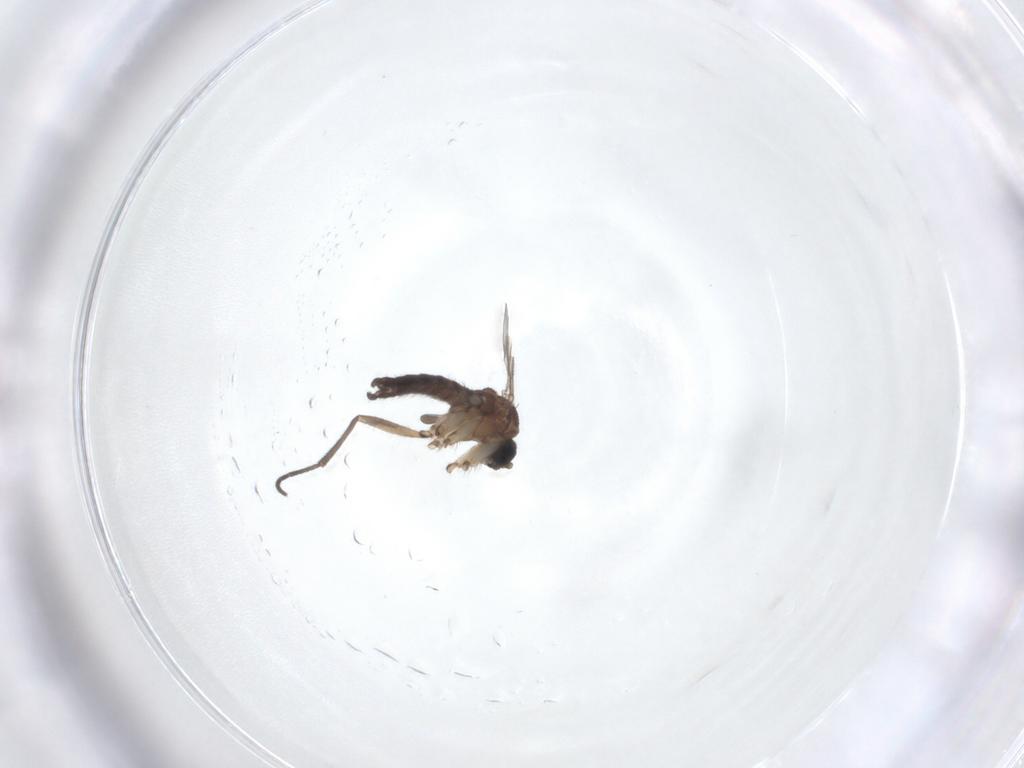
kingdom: Animalia
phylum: Arthropoda
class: Insecta
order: Diptera
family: Sciaridae
